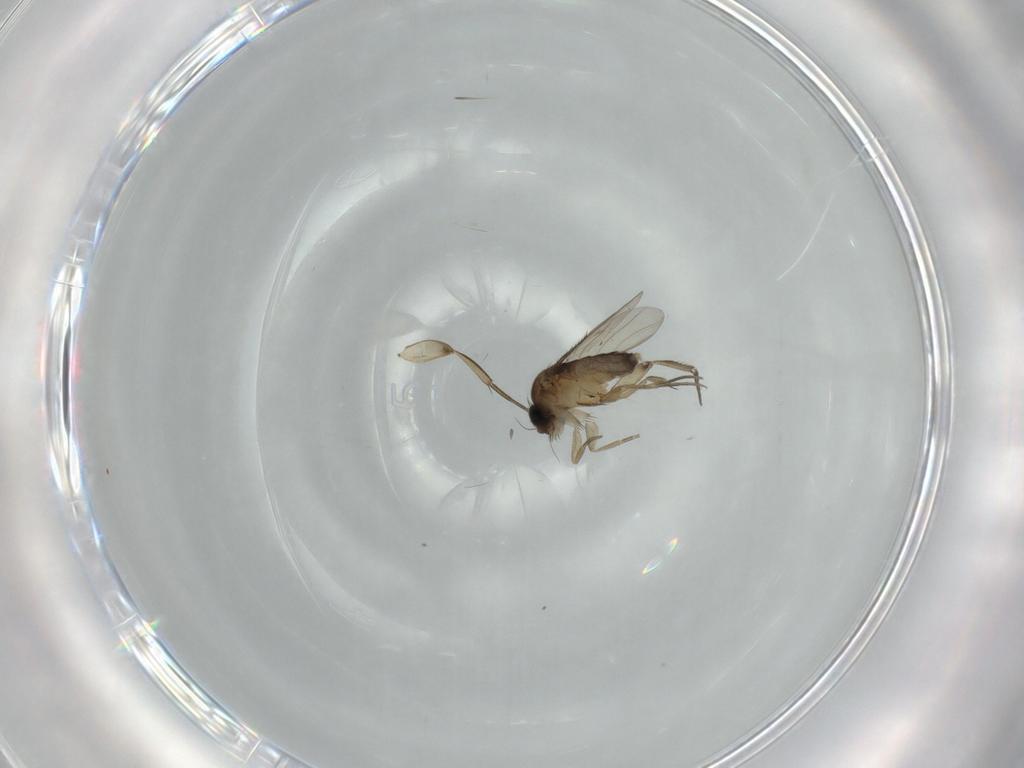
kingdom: Animalia
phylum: Arthropoda
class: Insecta
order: Diptera
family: Phoridae
